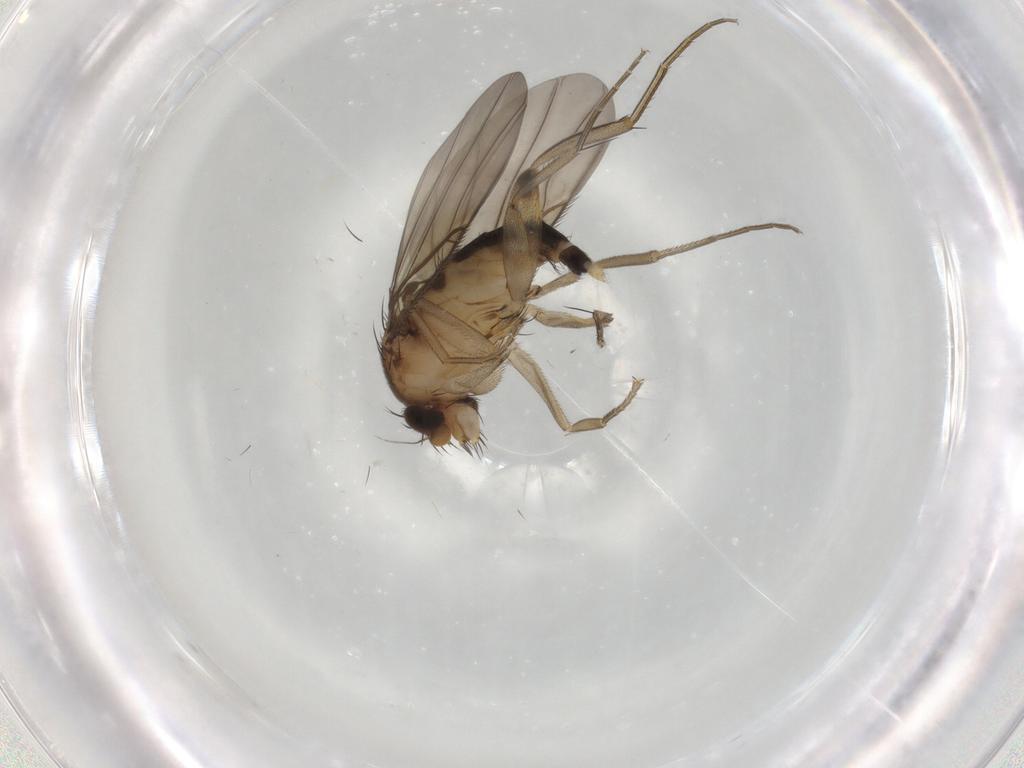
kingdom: Animalia
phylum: Arthropoda
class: Insecta
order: Diptera
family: Phoridae
